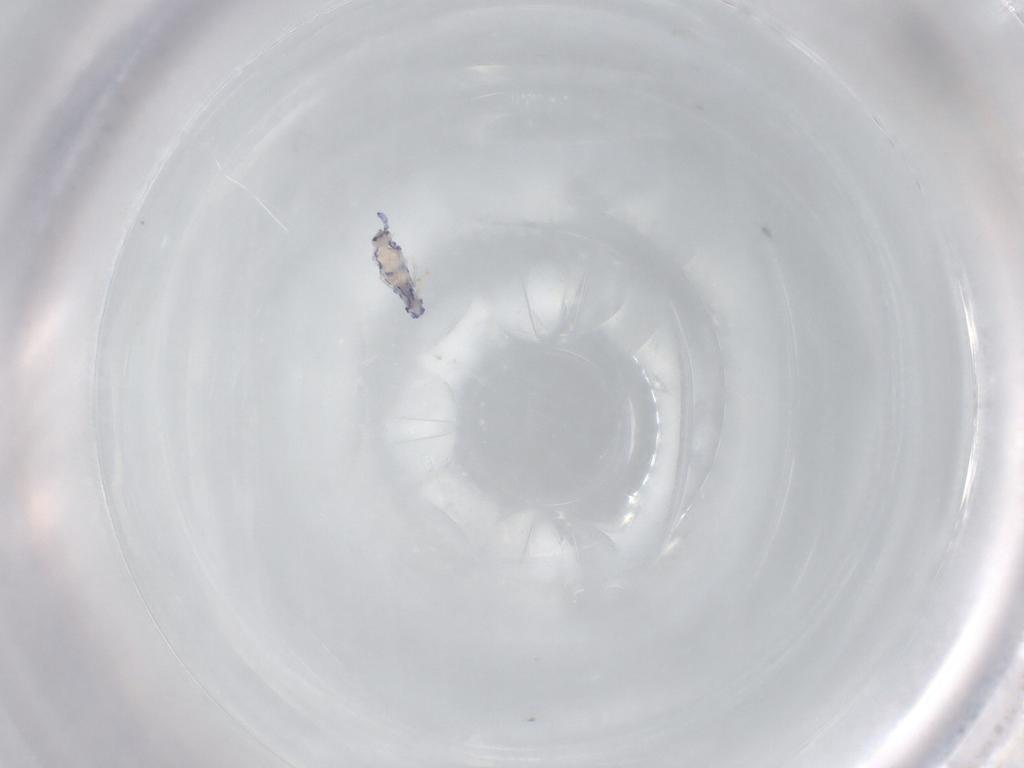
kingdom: Animalia
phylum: Arthropoda
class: Collembola
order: Entomobryomorpha
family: Entomobryidae
